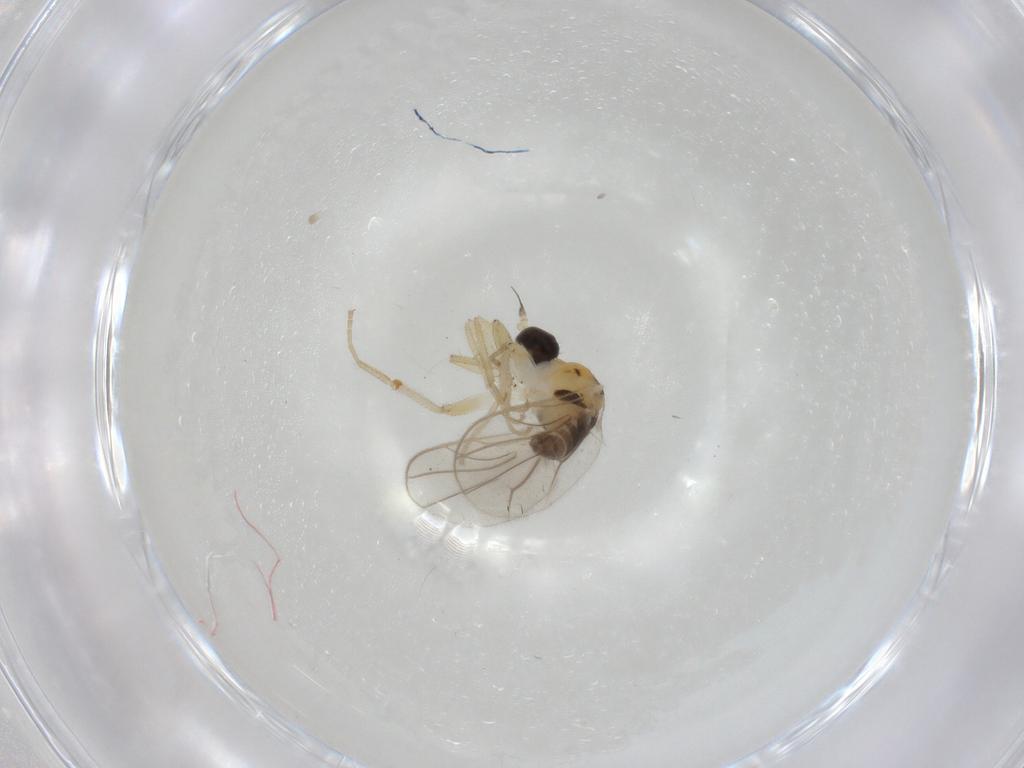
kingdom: Animalia
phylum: Arthropoda
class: Insecta
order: Diptera
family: Hybotidae
